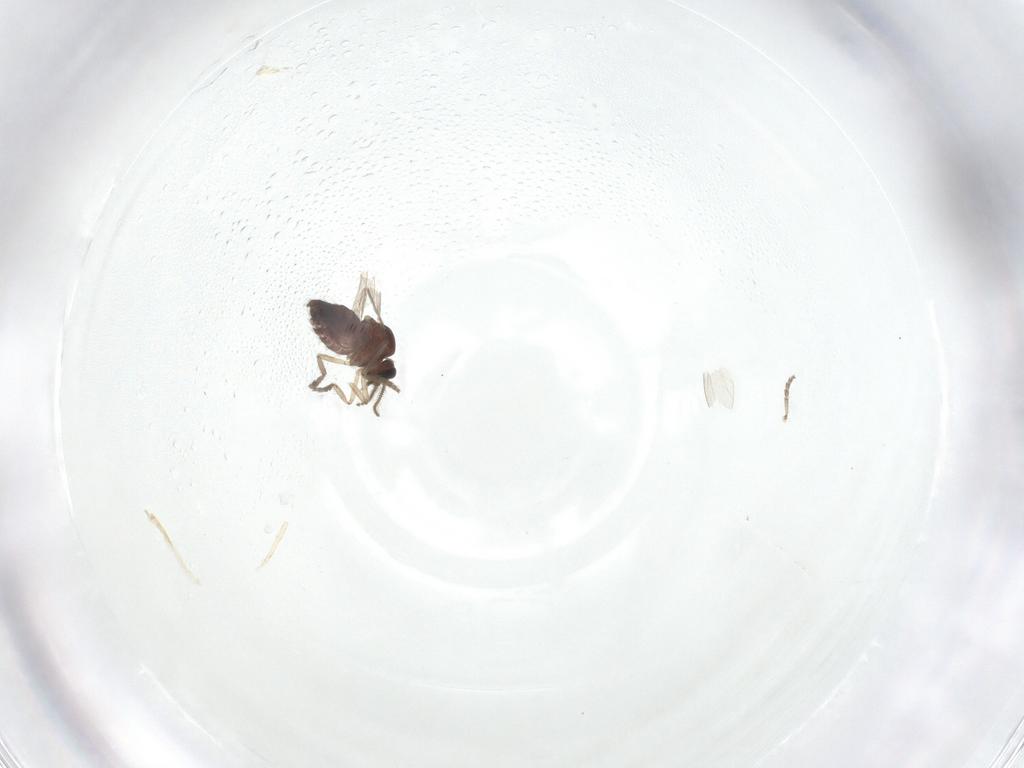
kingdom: Animalia
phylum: Arthropoda
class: Insecta
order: Diptera
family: Ceratopogonidae
